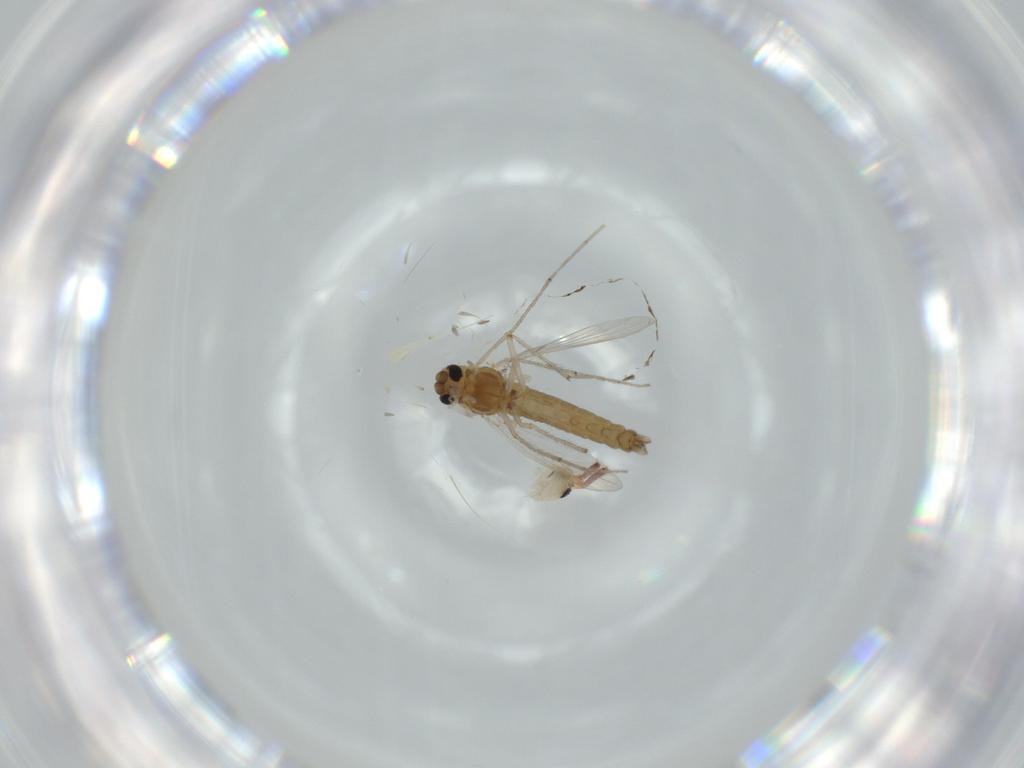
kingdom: Animalia
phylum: Arthropoda
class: Insecta
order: Diptera
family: Chironomidae
